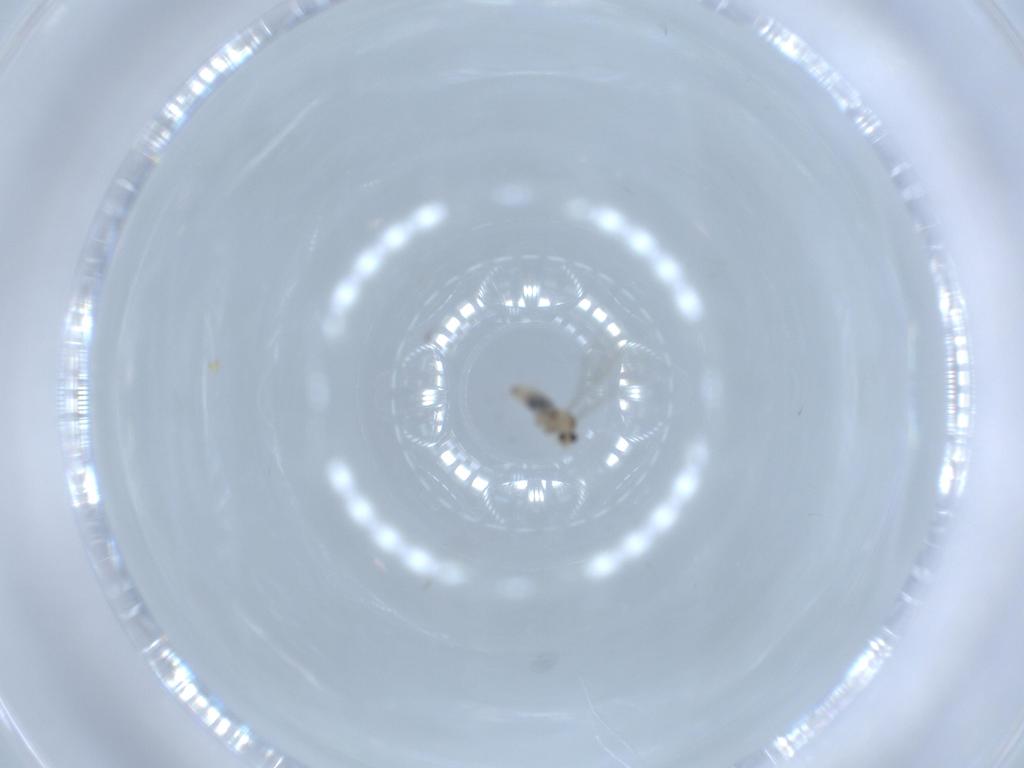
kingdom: Animalia
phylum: Arthropoda
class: Insecta
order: Diptera
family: Cecidomyiidae
